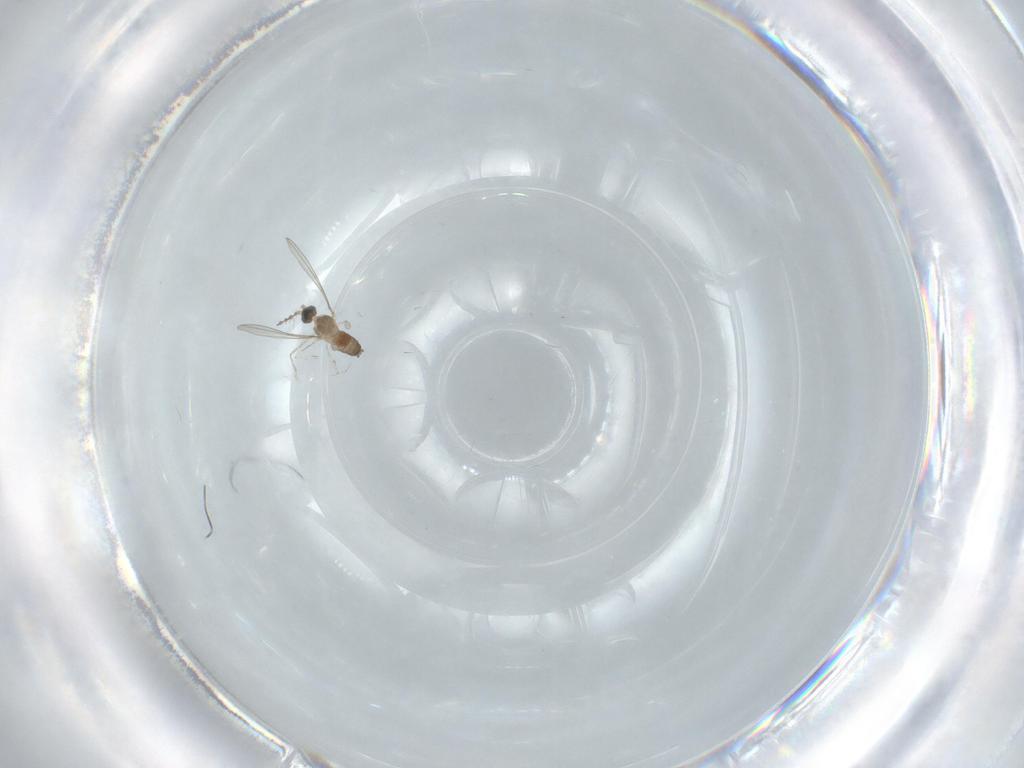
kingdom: Animalia
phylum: Arthropoda
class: Insecta
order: Diptera
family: Cecidomyiidae
